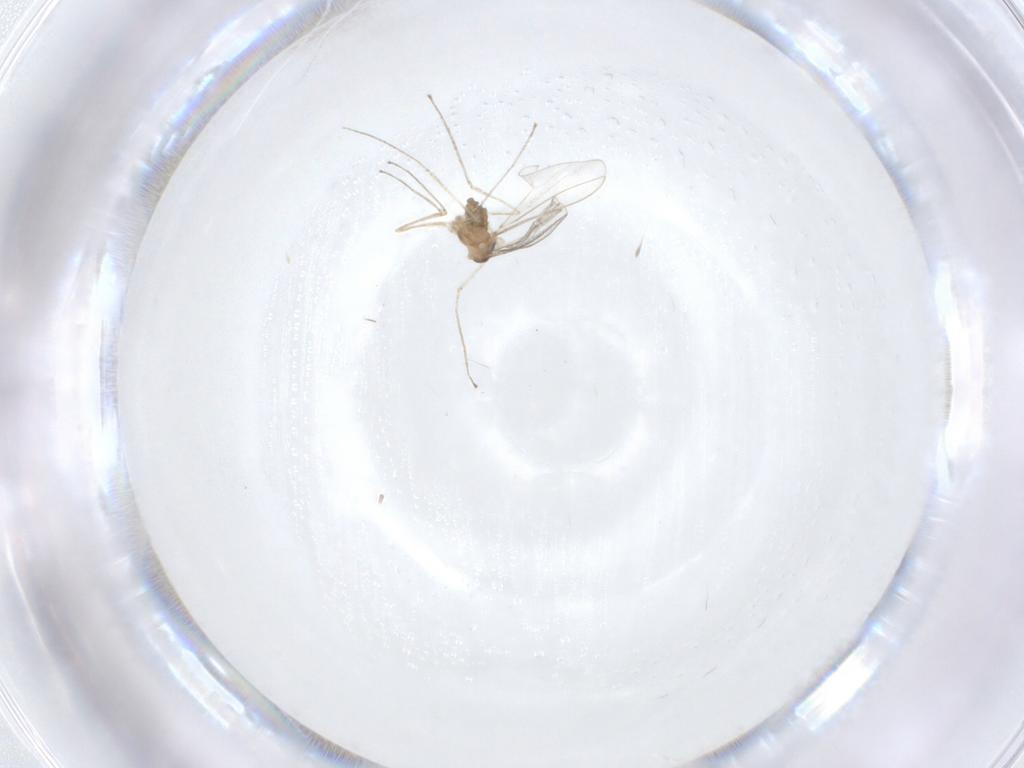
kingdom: Animalia
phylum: Arthropoda
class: Insecta
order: Diptera
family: Cecidomyiidae
